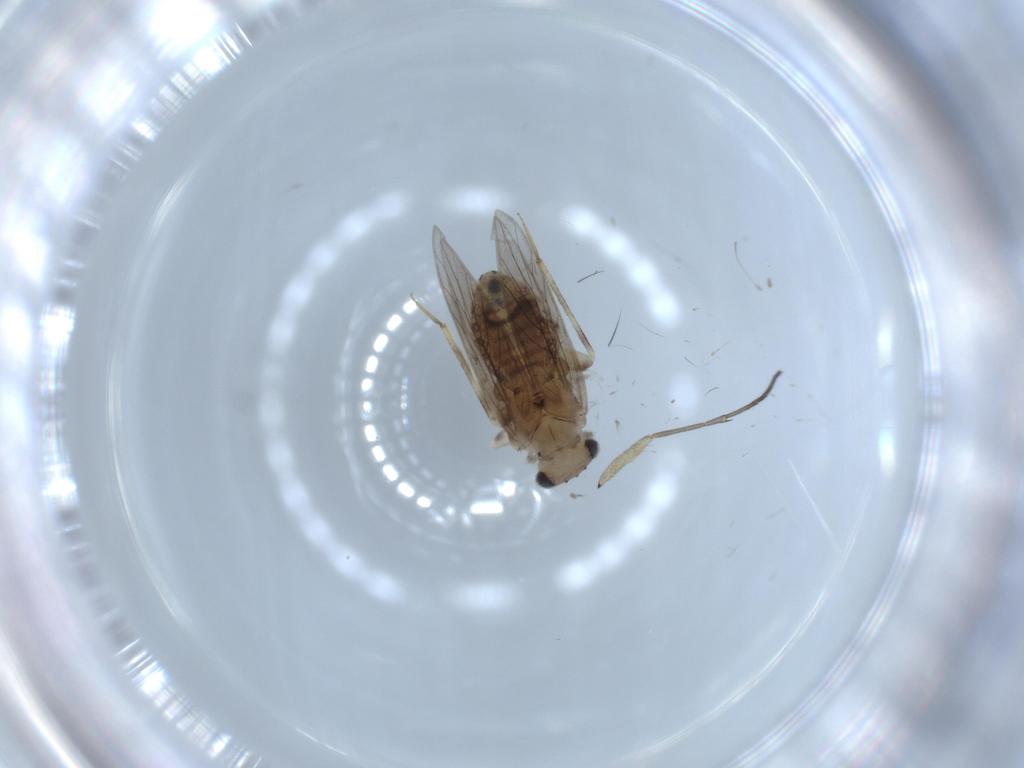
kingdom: Animalia
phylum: Arthropoda
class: Insecta
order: Psocodea
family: Lepidopsocidae
